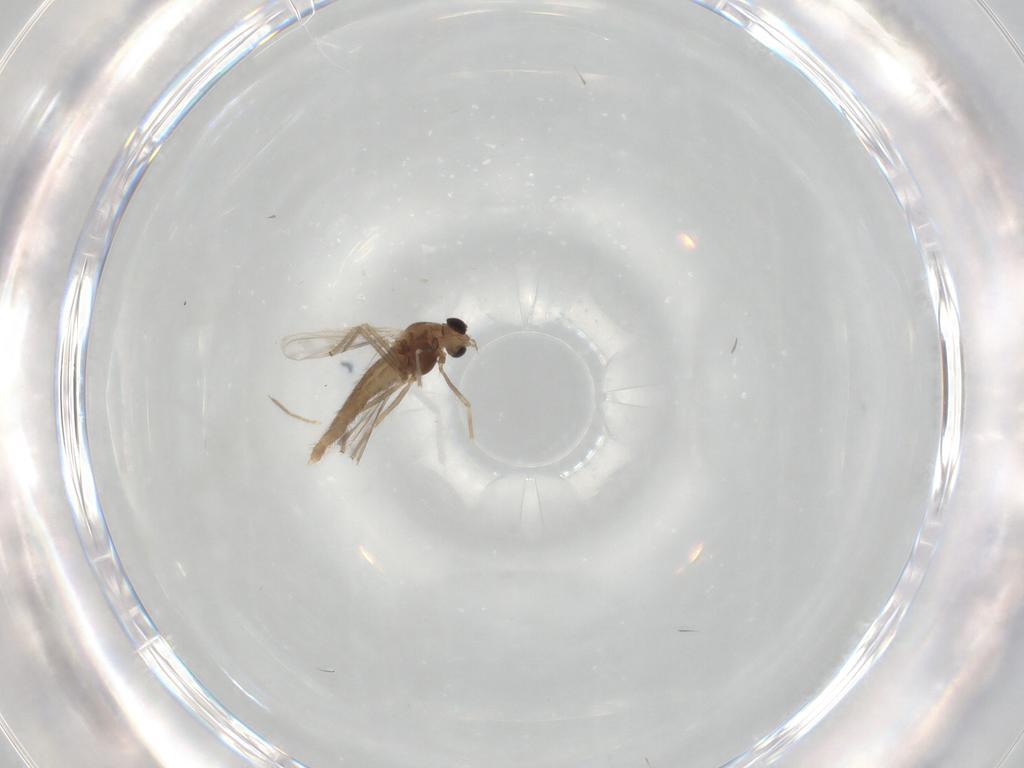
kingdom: Animalia
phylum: Arthropoda
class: Insecta
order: Diptera
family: Chironomidae
